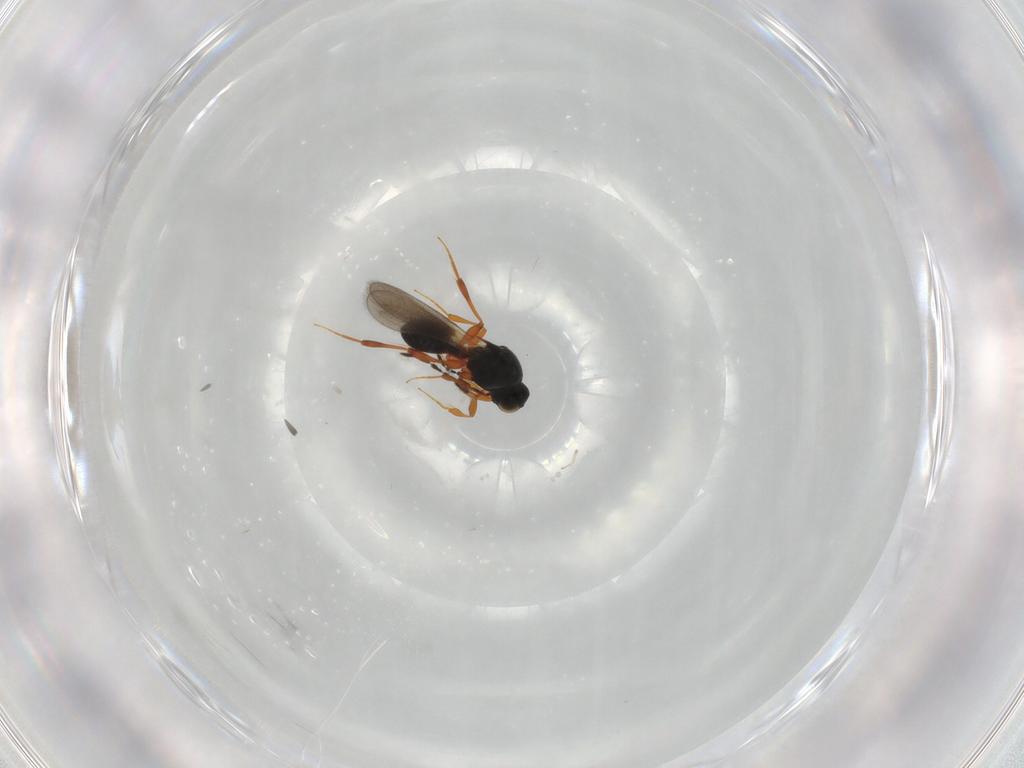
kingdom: Animalia
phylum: Arthropoda
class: Insecta
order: Hymenoptera
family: Platygastridae
